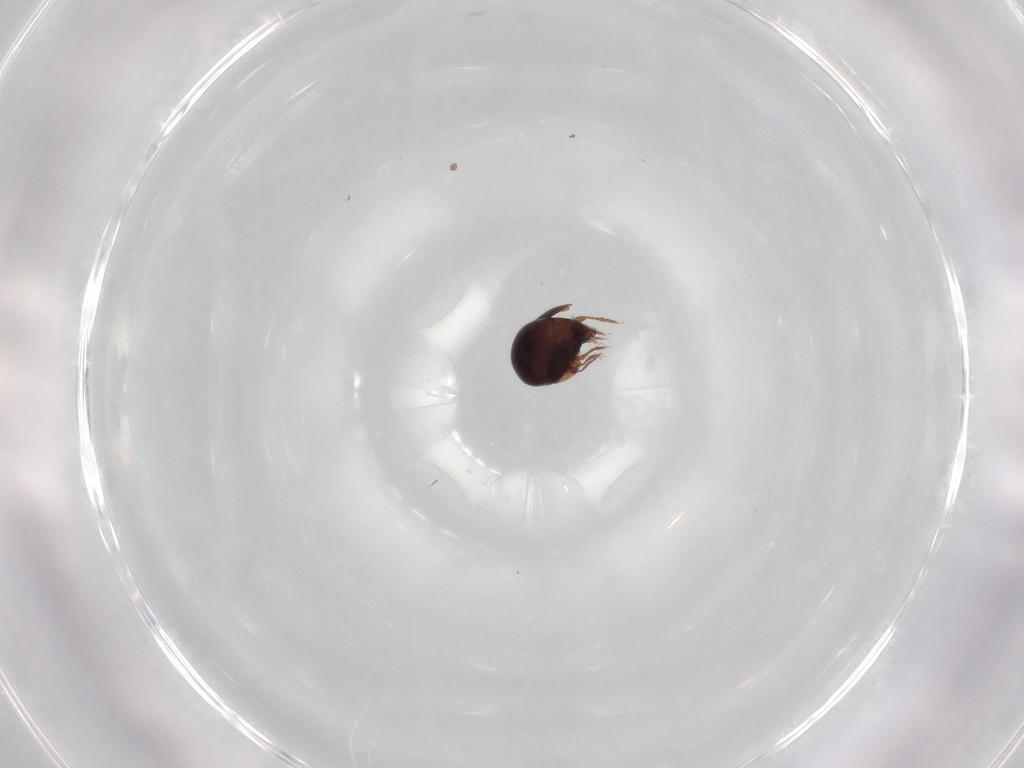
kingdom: Animalia
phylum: Arthropoda
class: Arachnida
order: Sarcoptiformes
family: Galumnidae
